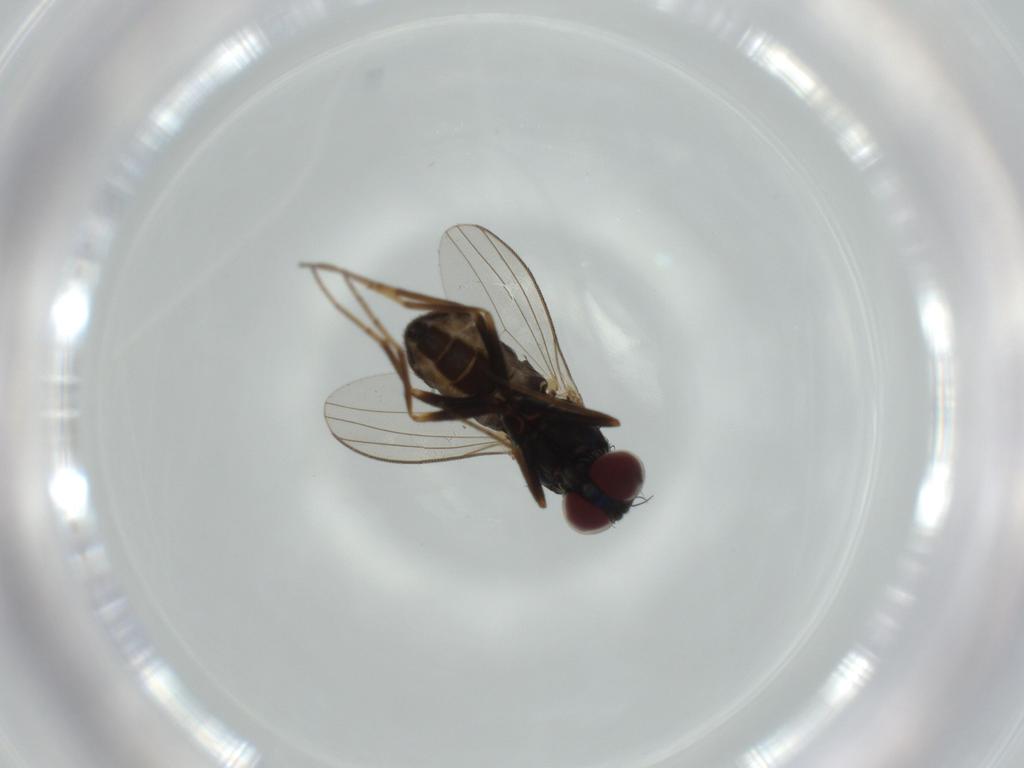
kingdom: Animalia
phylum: Arthropoda
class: Insecta
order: Diptera
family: Dolichopodidae
